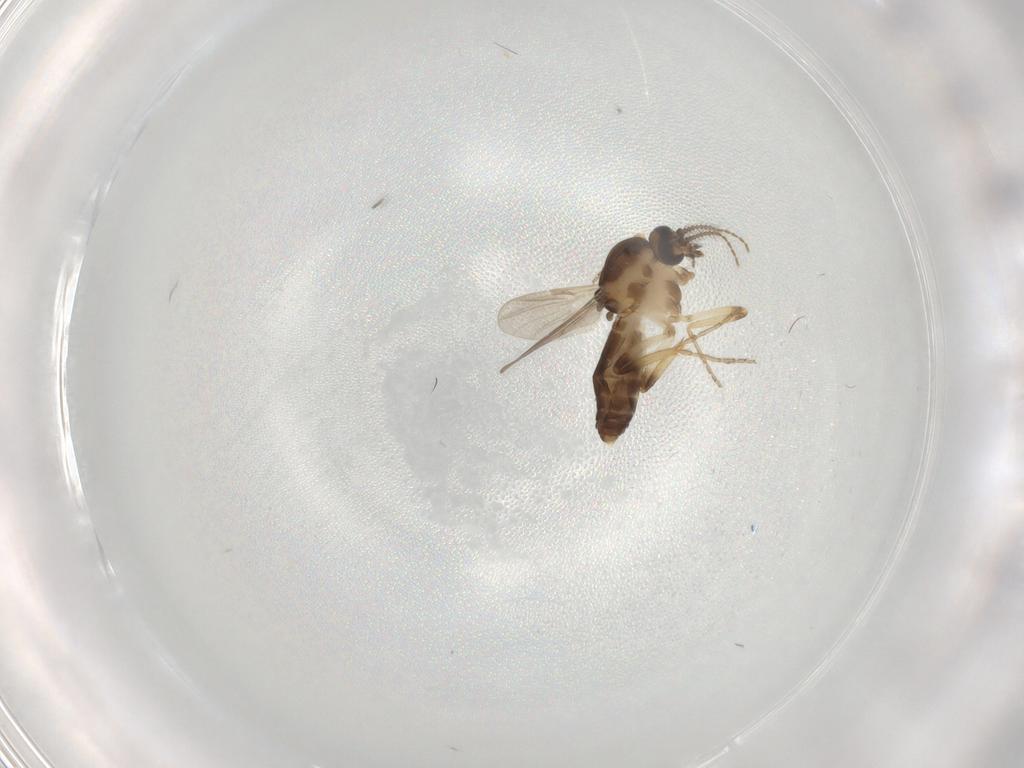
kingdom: Animalia
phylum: Arthropoda
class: Insecta
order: Diptera
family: Ceratopogonidae
